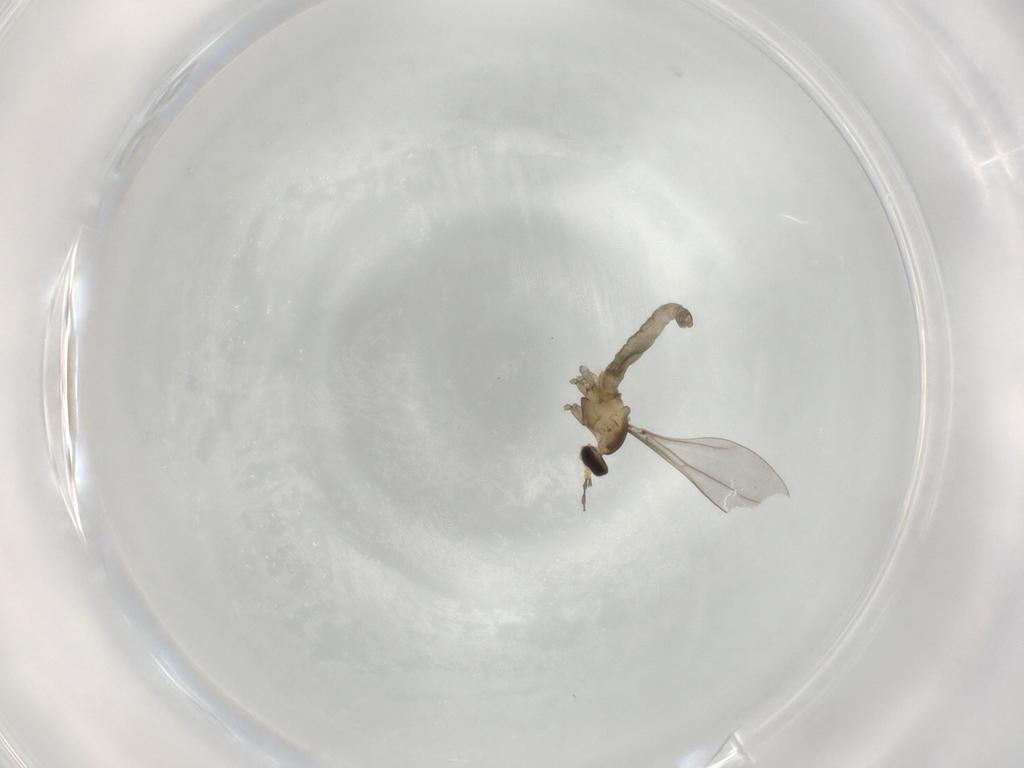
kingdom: Animalia
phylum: Arthropoda
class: Insecta
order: Diptera
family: Cecidomyiidae
